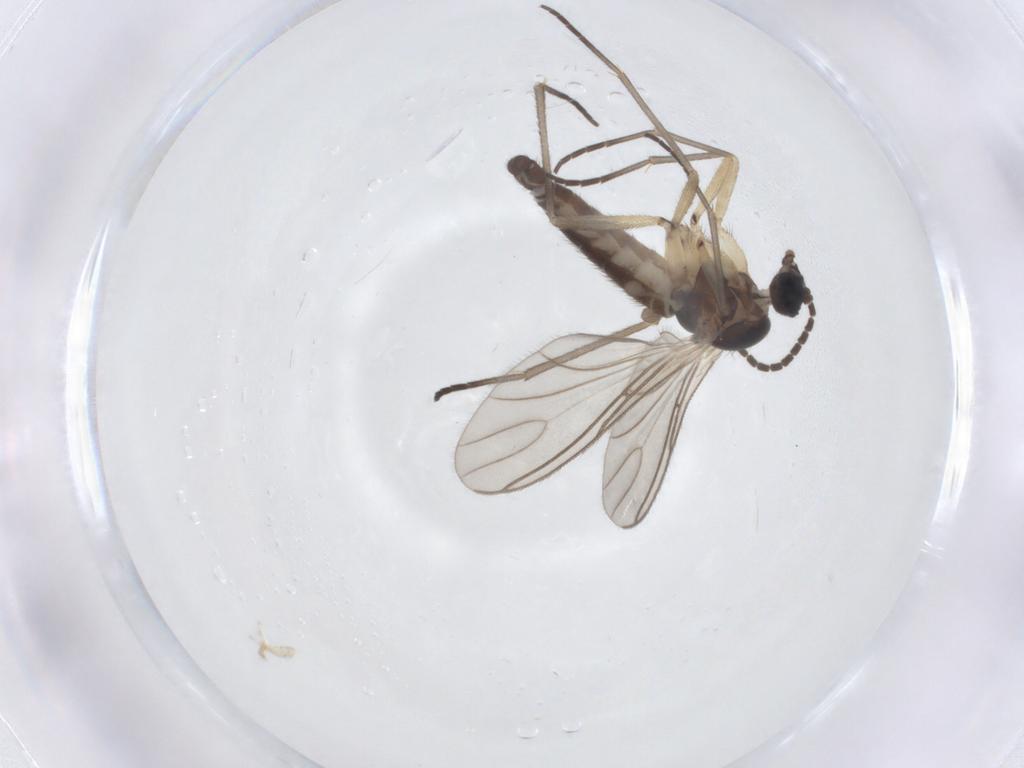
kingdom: Animalia
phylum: Arthropoda
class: Insecta
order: Diptera
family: Sciaridae
